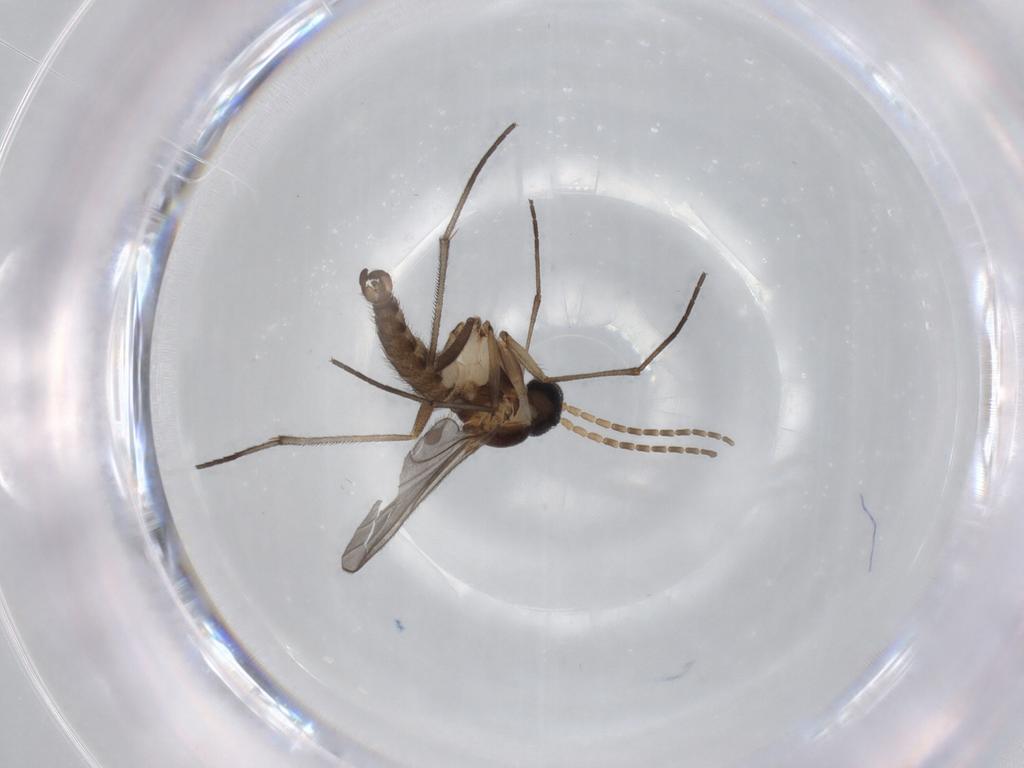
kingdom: Animalia
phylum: Arthropoda
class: Insecta
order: Diptera
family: Sciaridae
